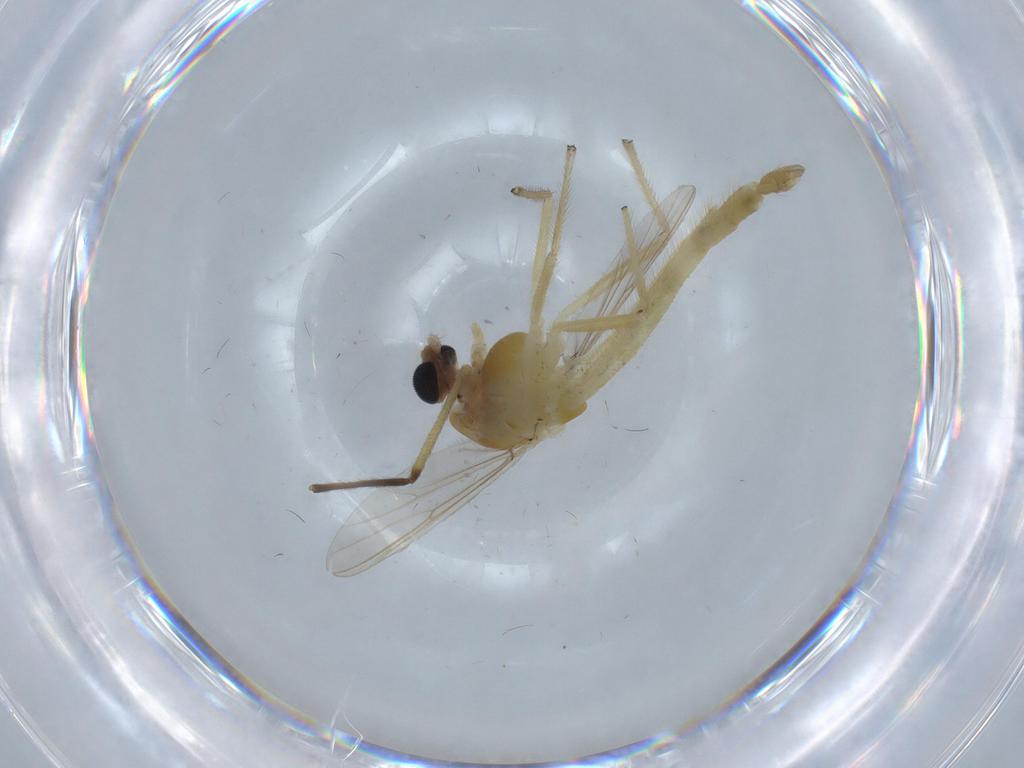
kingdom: Animalia
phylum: Arthropoda
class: Insecta
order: Diptera
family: Chironomidae
